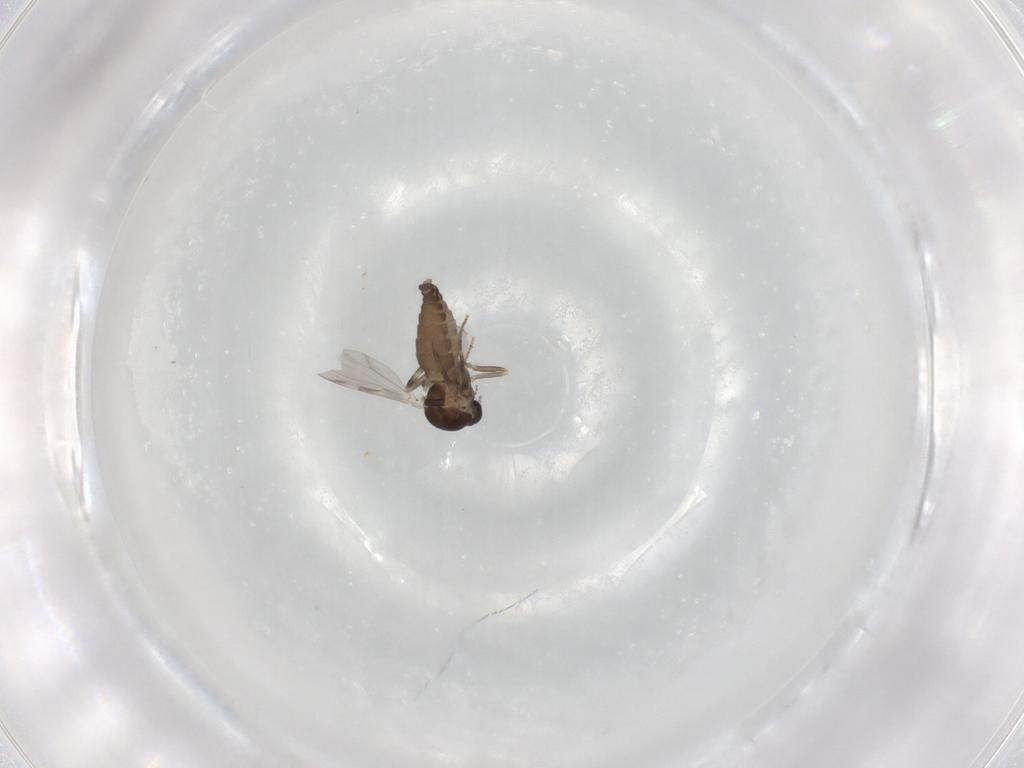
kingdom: Animalia
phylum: Arthropoda
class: Insecta
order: Diptera
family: Ceratopogonidae
